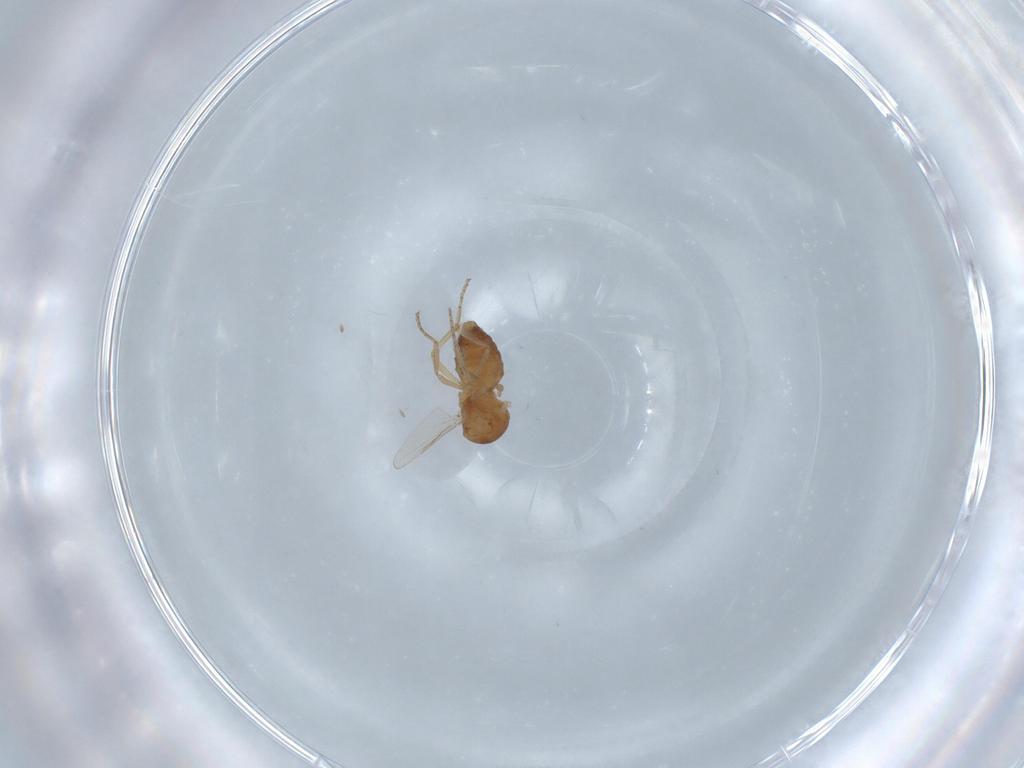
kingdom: Animalia
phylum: Arthropoda
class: Insecta
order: Diptera
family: Ceratopogonidae
